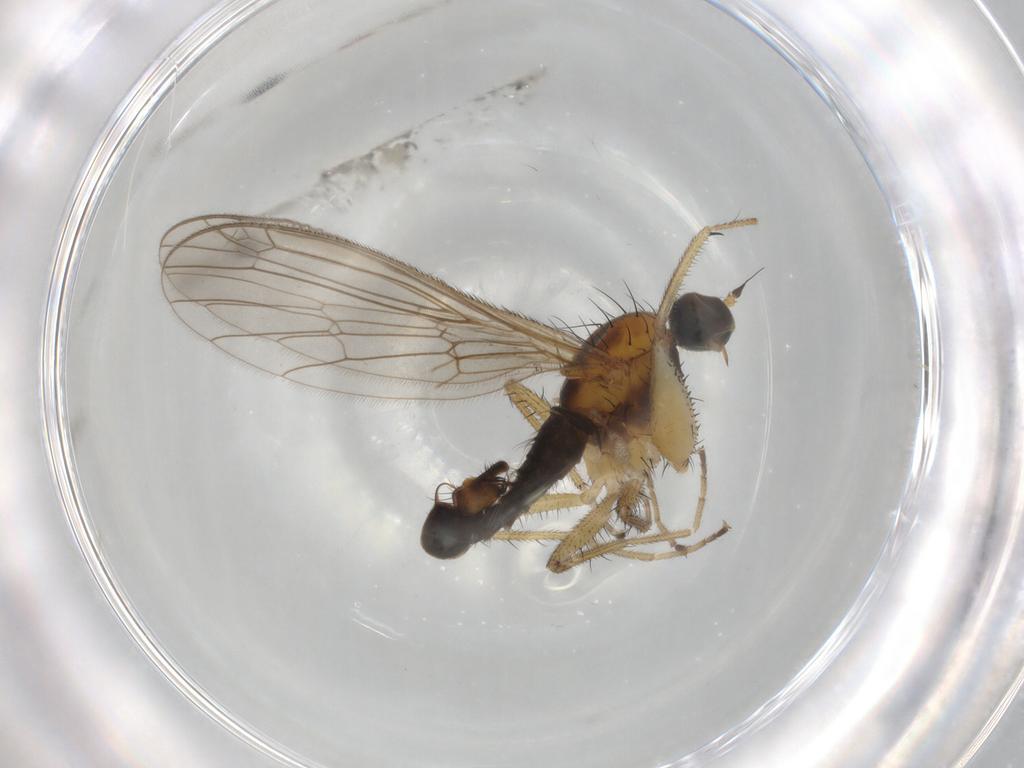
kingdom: Animalia
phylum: Arthropoda
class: Insecta
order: Diptera
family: Empididae
